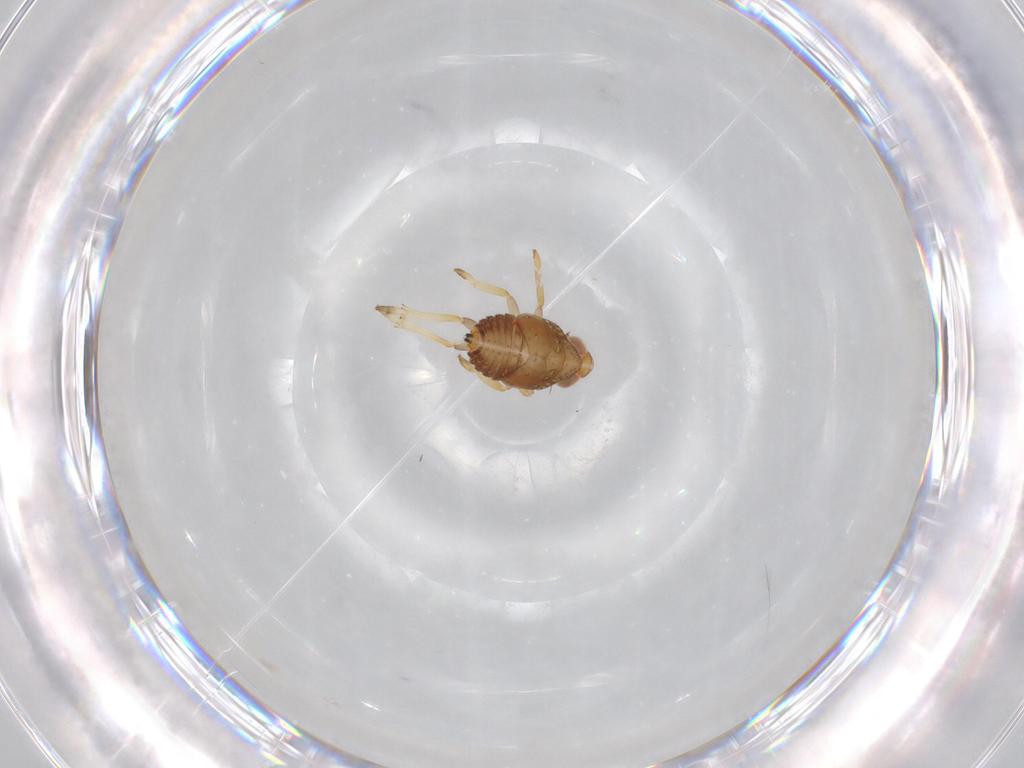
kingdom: Animalia
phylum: Arthropoda
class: Insecta
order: Hemiptera
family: Issidae
